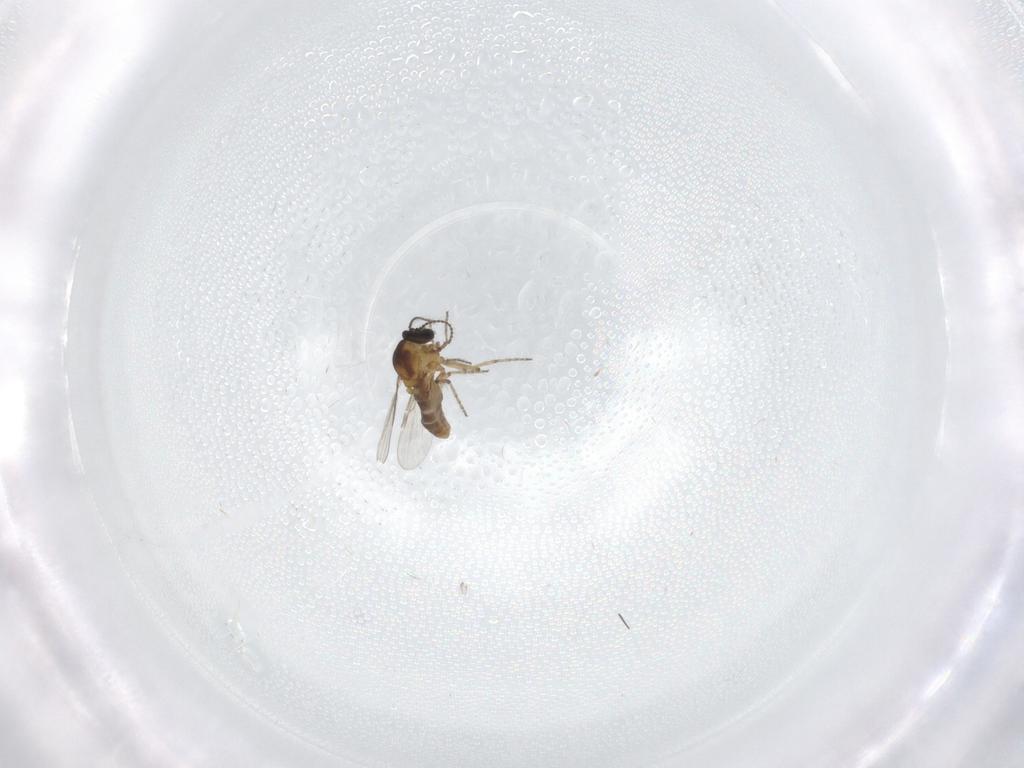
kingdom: Animalia
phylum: Arthropoda
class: Insecta
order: Diptera
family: Ceratopogonidae
